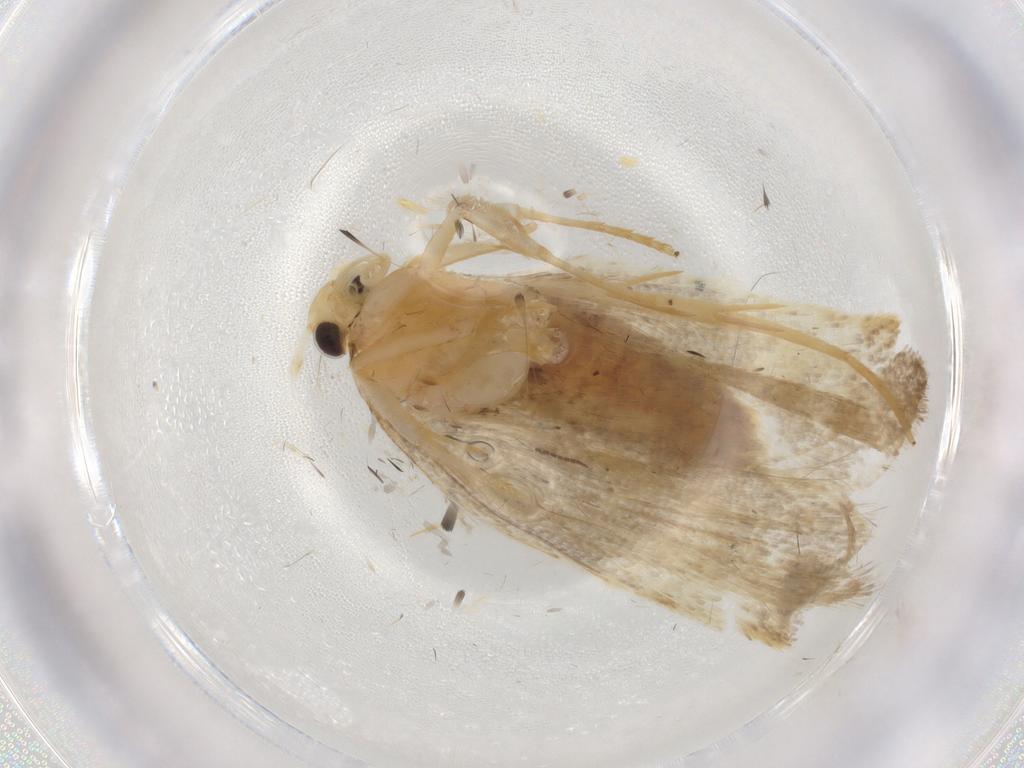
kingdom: Animalia
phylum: Arthropoda
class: Insecta
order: Lepidoptera
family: Lecithoceridae
